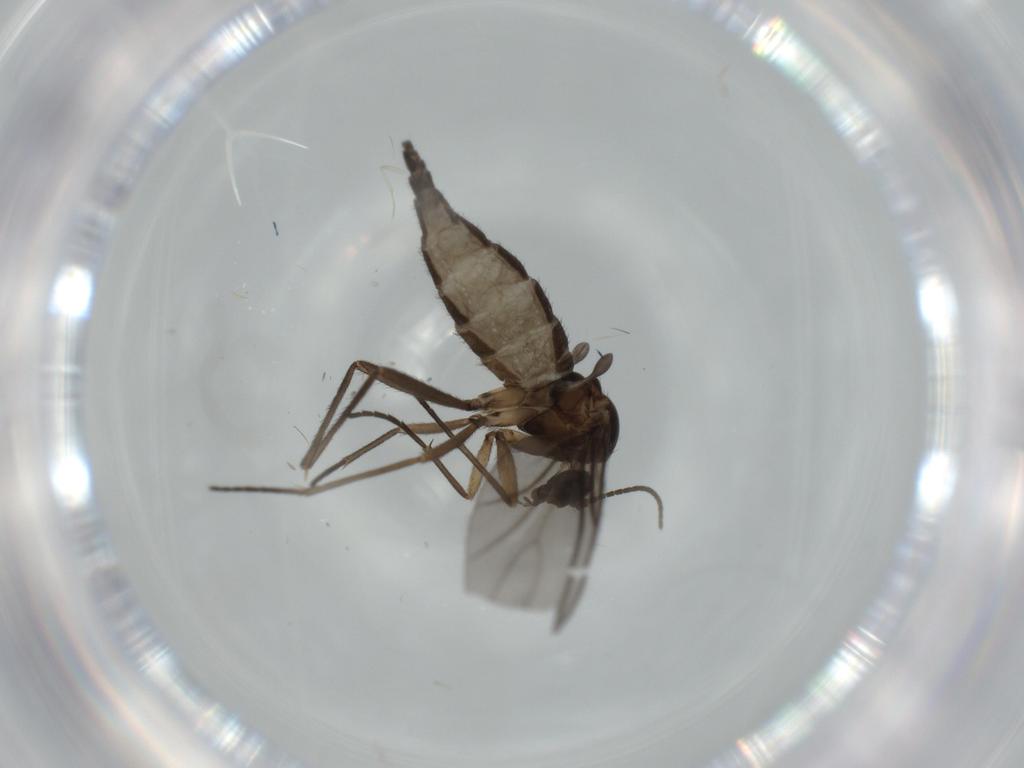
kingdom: Animalia
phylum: Arthropoda
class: Insecta
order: Diptera
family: Sciaridae
